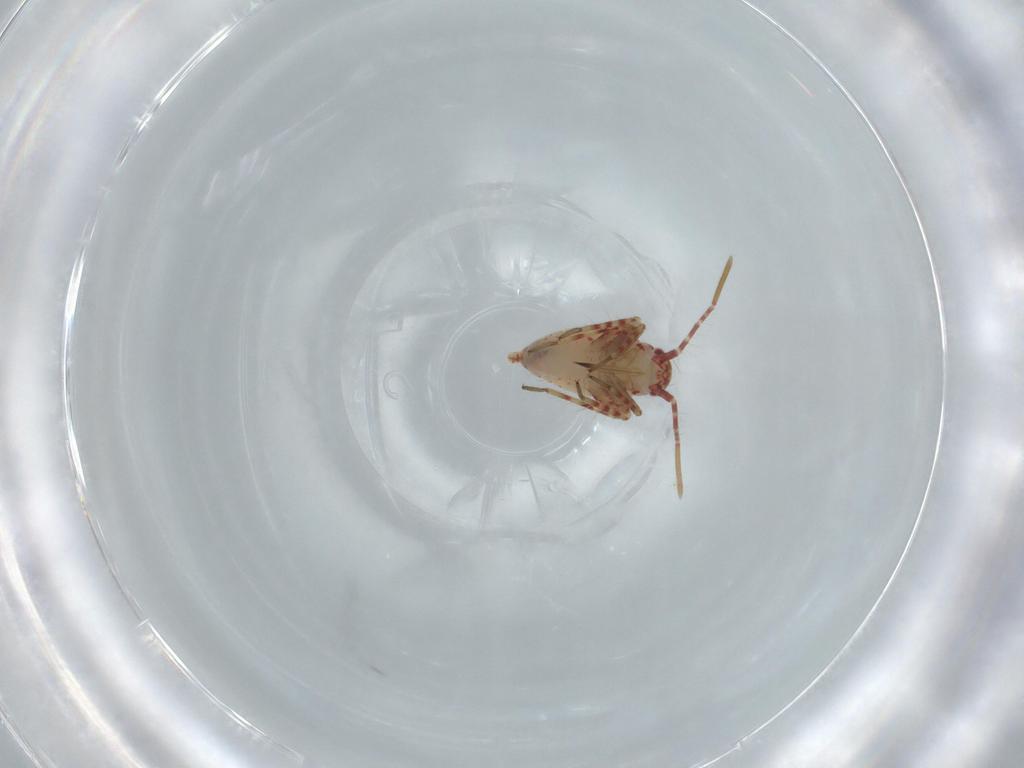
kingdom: Animalia
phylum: Arthropoda
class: Insecta
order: Hemiptera
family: Miridae
